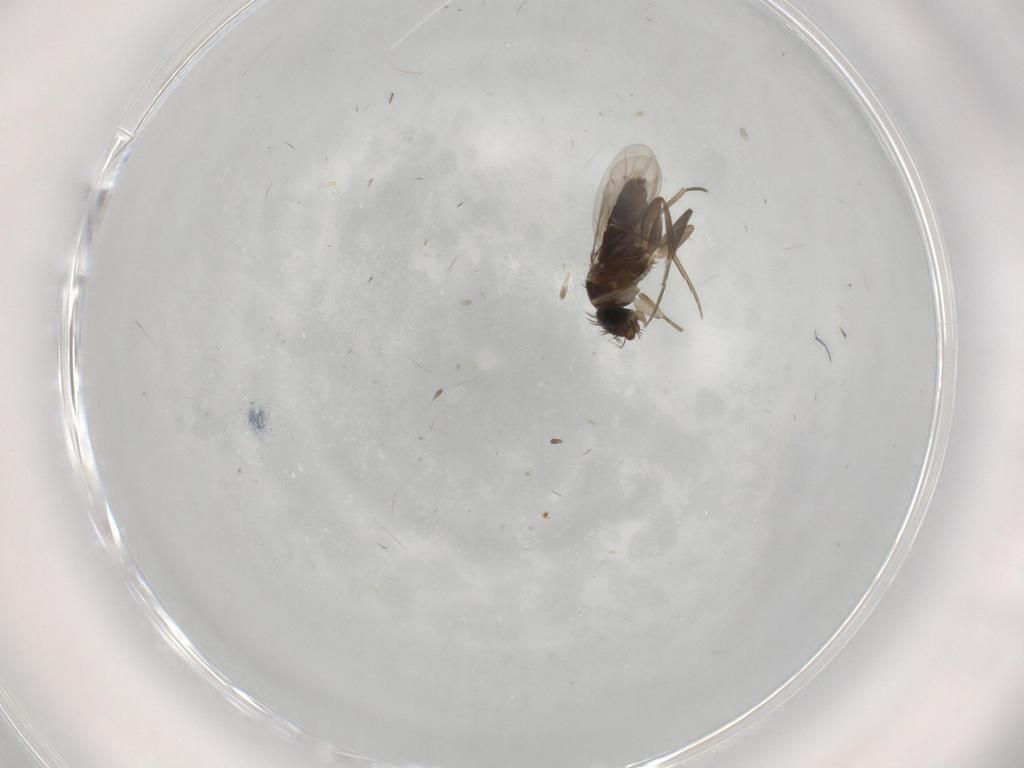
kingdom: Animalia
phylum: Arthropoda
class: Insecta
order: Diptera
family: Phoridae
